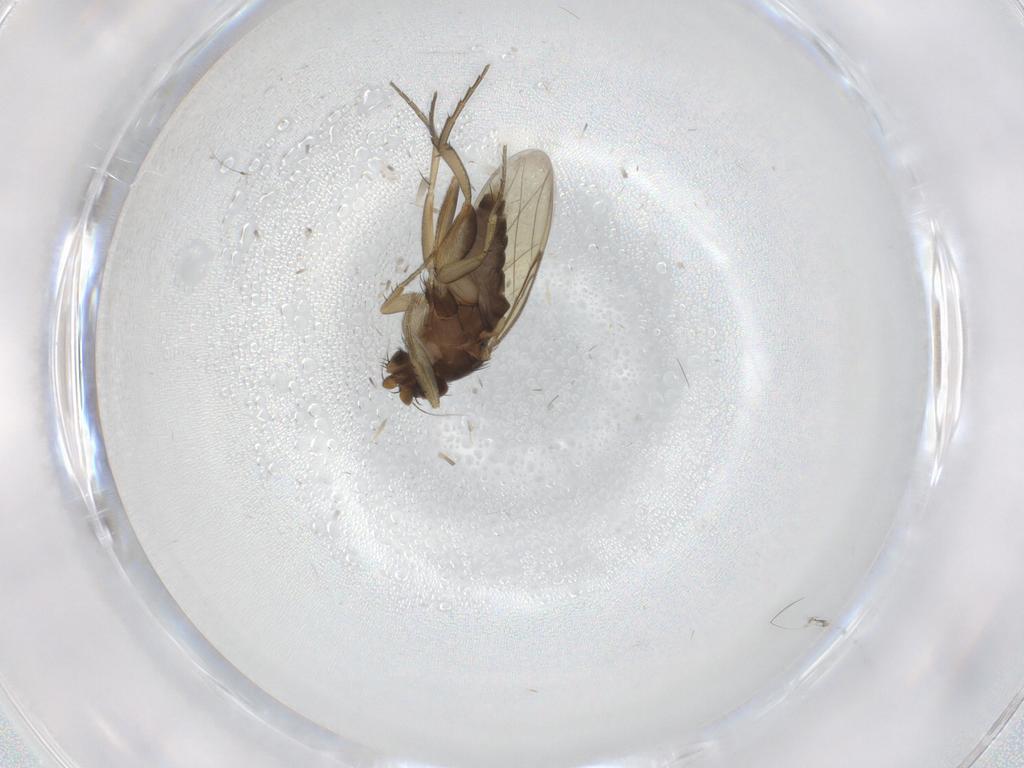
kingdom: Animalia
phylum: Arthropoda
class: Insecta
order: Diptera
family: Phoridae
